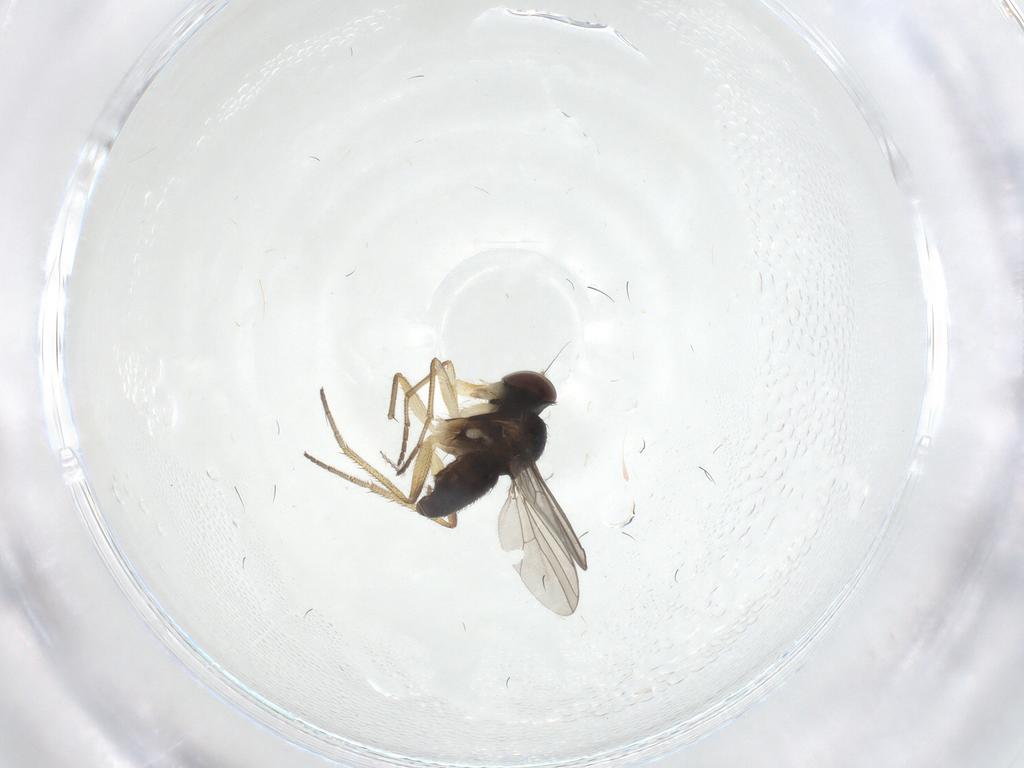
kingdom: Animalia
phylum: Arthropoda
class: Insecta
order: Diptera
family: Dolichopodidae
